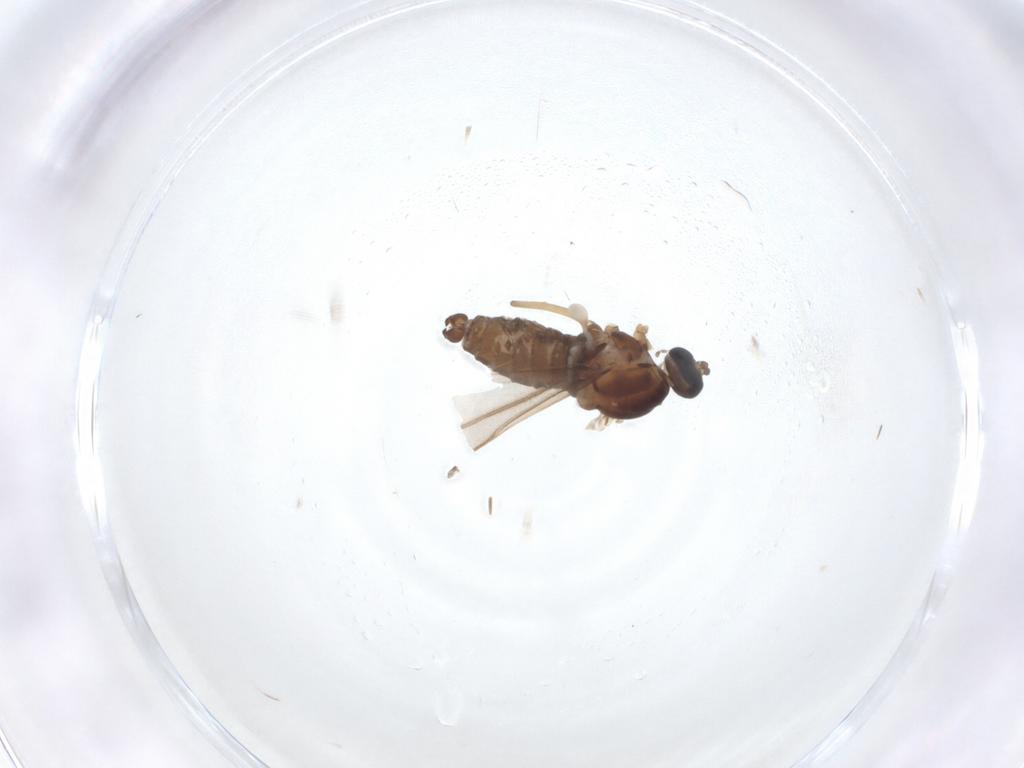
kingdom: Animalia
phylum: Arthropoda
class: Insecta
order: Diptera
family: Cecidomyiidae
